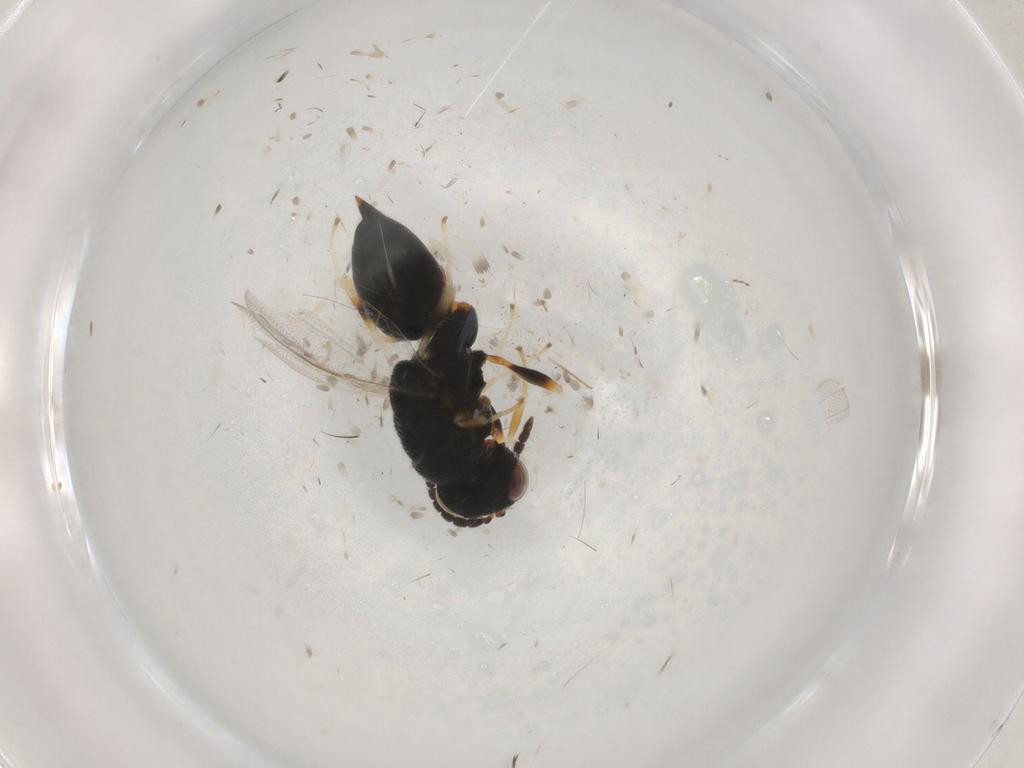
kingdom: Animalia
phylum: Arthropoda
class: Insecta
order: Hymenoptera
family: Eurytomidae
